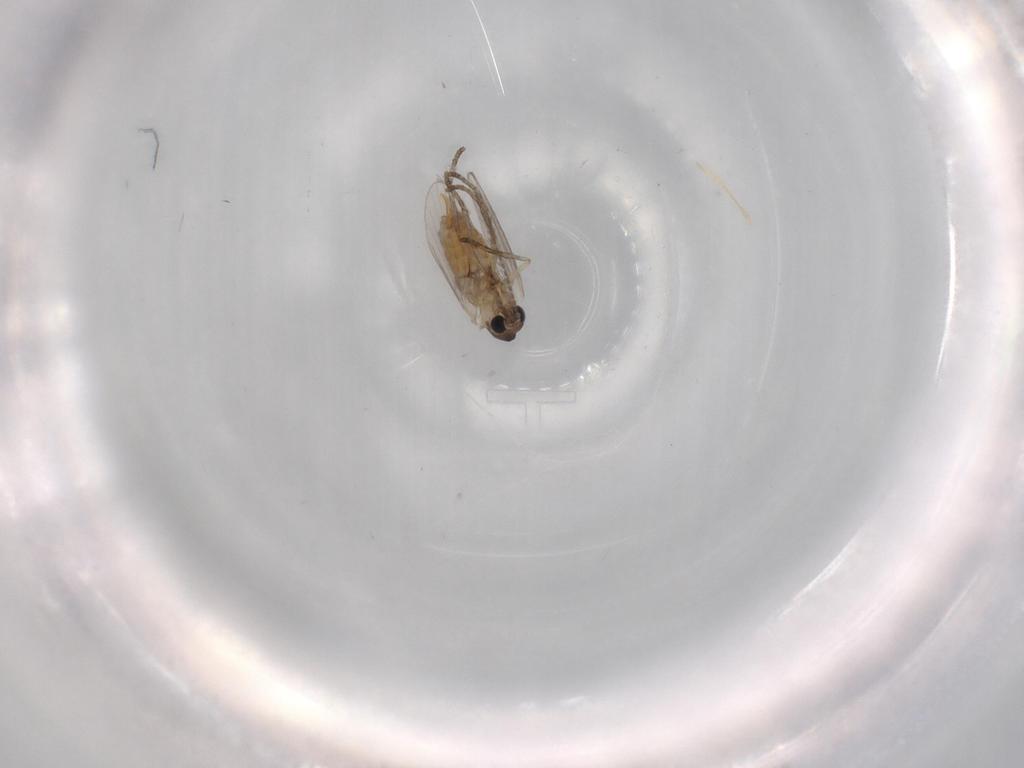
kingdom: Animalia
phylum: Arthropoda
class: Insecta
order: Diptera
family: Psychodidae
